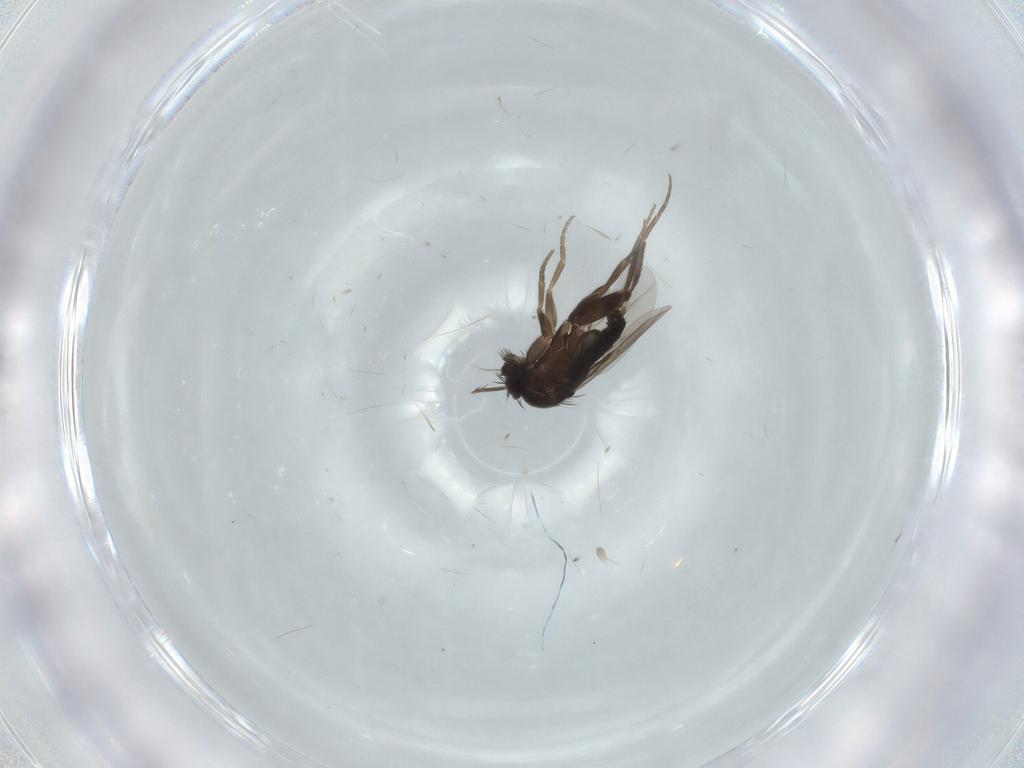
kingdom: Animalia
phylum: Arthropoda
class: Insecta
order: Diptera
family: Phoridae
